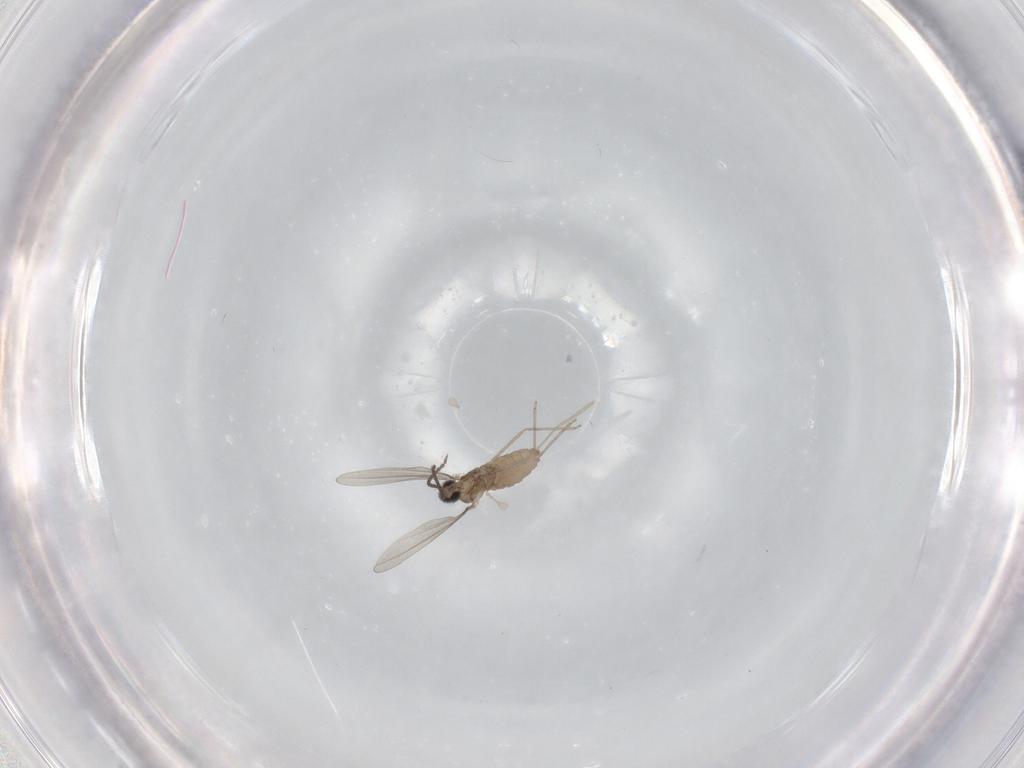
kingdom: Animalia
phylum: Arthropoda
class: Insecta
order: Diptera
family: Cecidomyiidae
